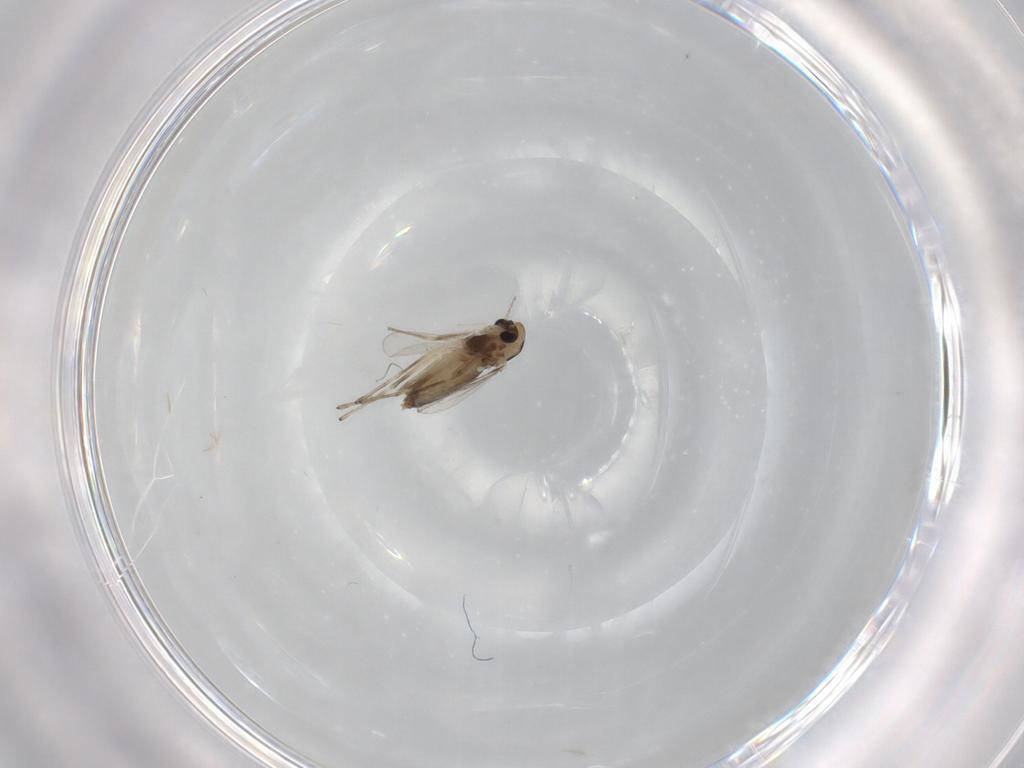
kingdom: Animalia
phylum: Arthropoda
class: Insecta
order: Diptera
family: Chironomidae
